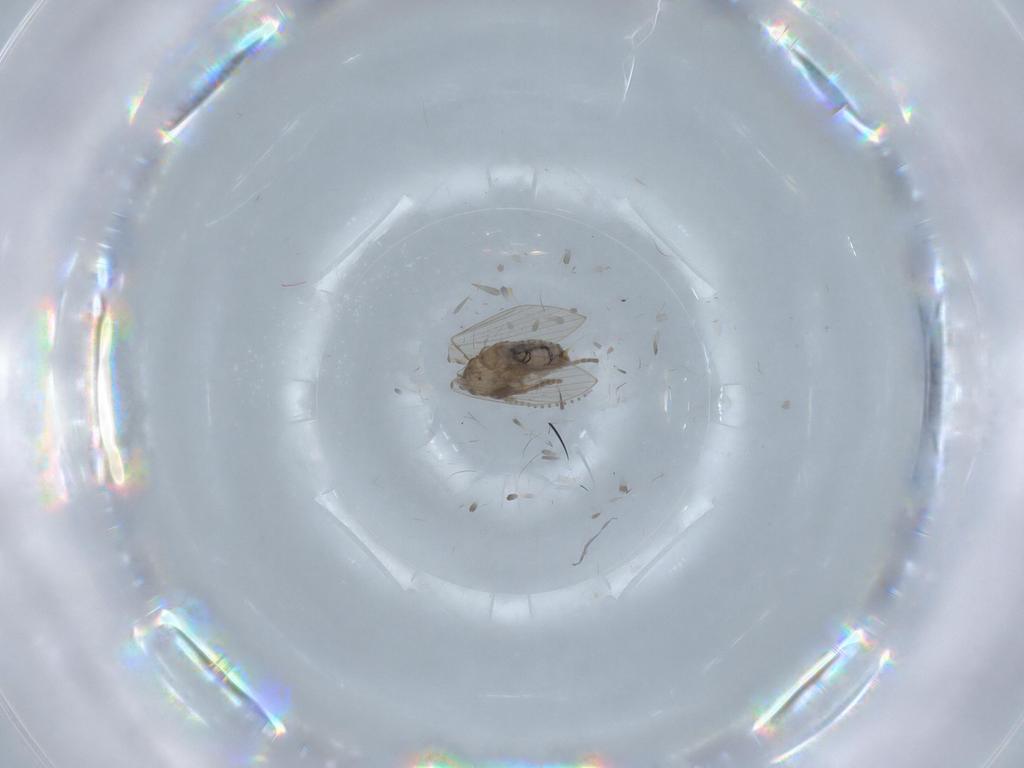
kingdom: Animalia
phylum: Arthropoda
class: Insecta
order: Diptera
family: Psychodidae
